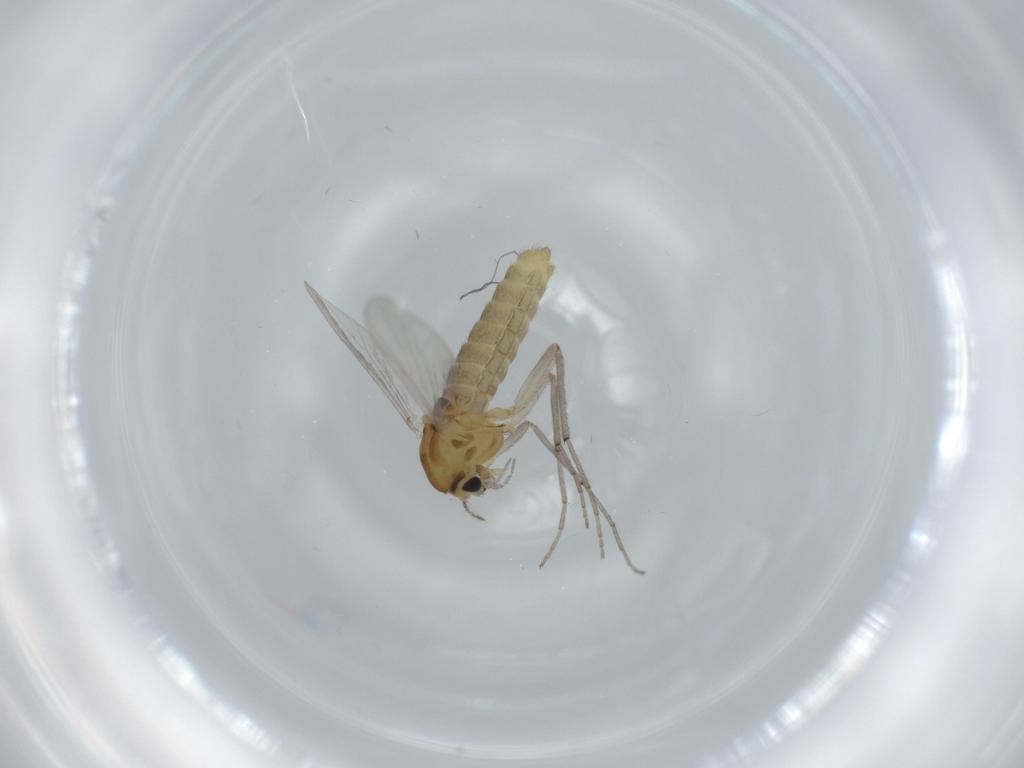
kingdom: Animalia
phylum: Arthropoda
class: Insecta
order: Diptera
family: Chironomidae
